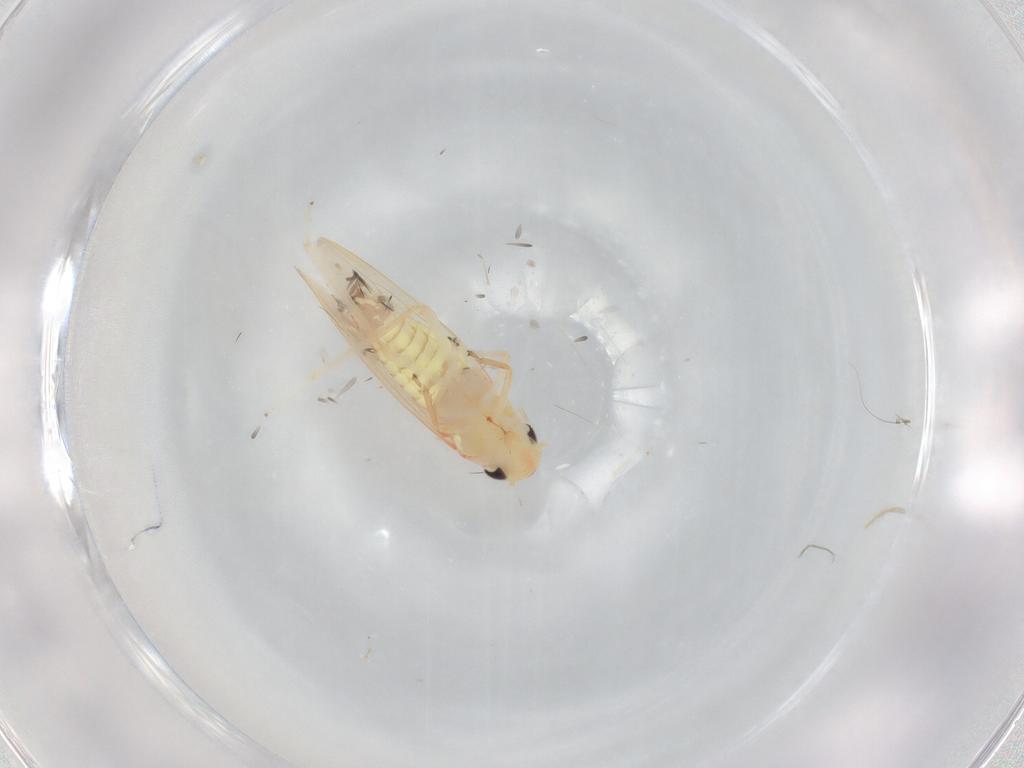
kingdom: Animalia
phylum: Arthropoda
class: Insecta
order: Hemiptera
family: Cicadellidae
